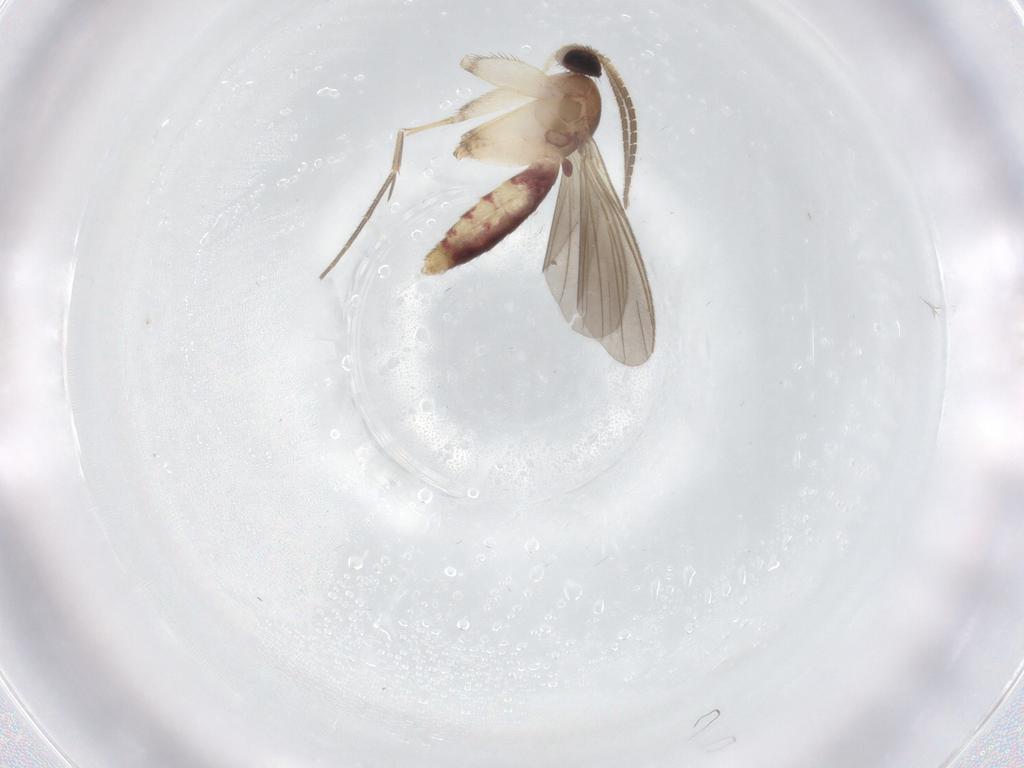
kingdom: Animalia
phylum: Arthropoda
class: Insecta
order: Diptera
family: Mycetophilidae
